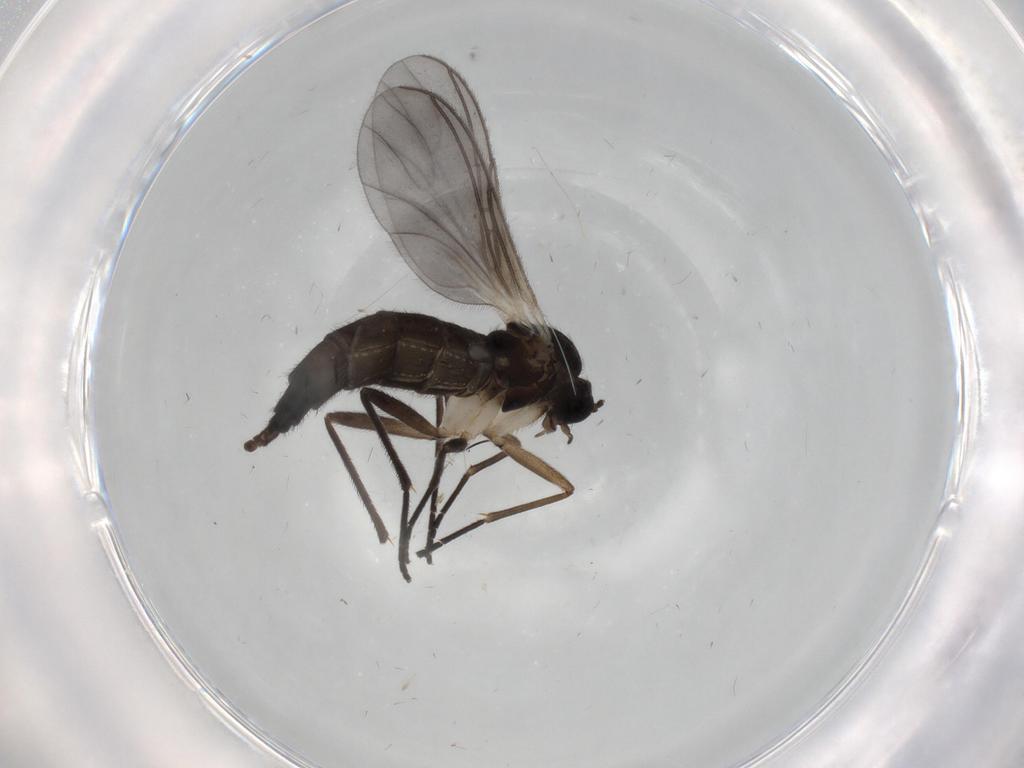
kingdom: Animalia
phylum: Arthropoda
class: Insecta
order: Diptera
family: Sciaridae
